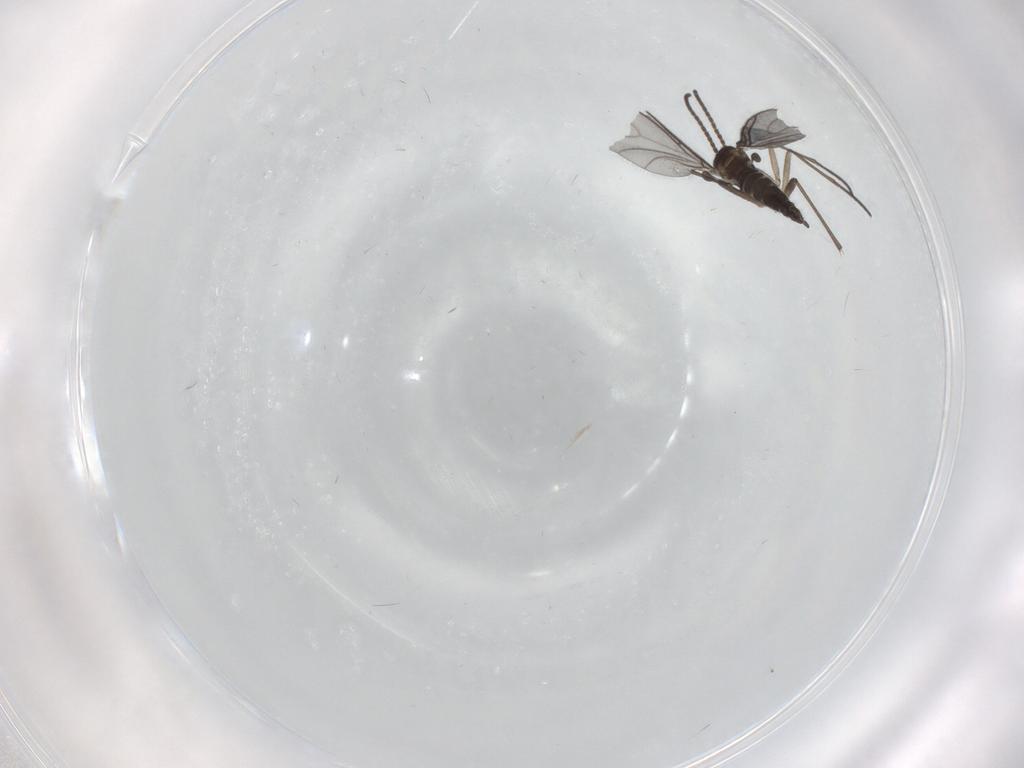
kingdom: Animalia
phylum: Arthropoda
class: Insecta
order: Diptera
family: Sciaridae
